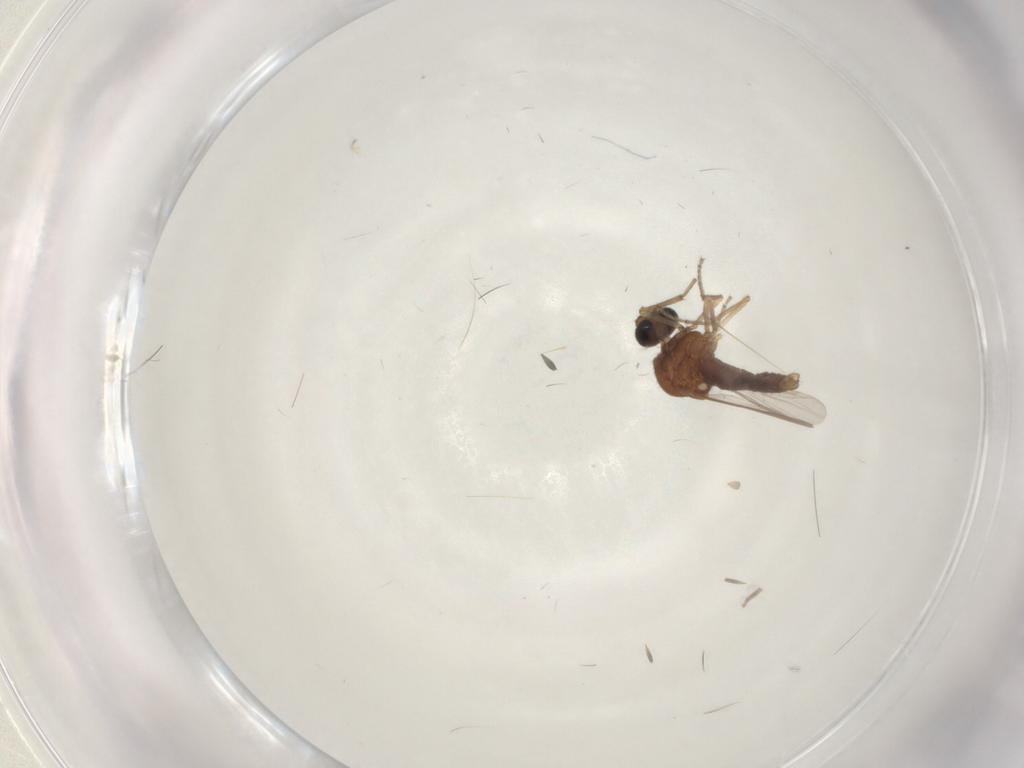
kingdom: Animalia
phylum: Arthropoda
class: Insecta
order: Diptera
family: Ceratopogonidae
